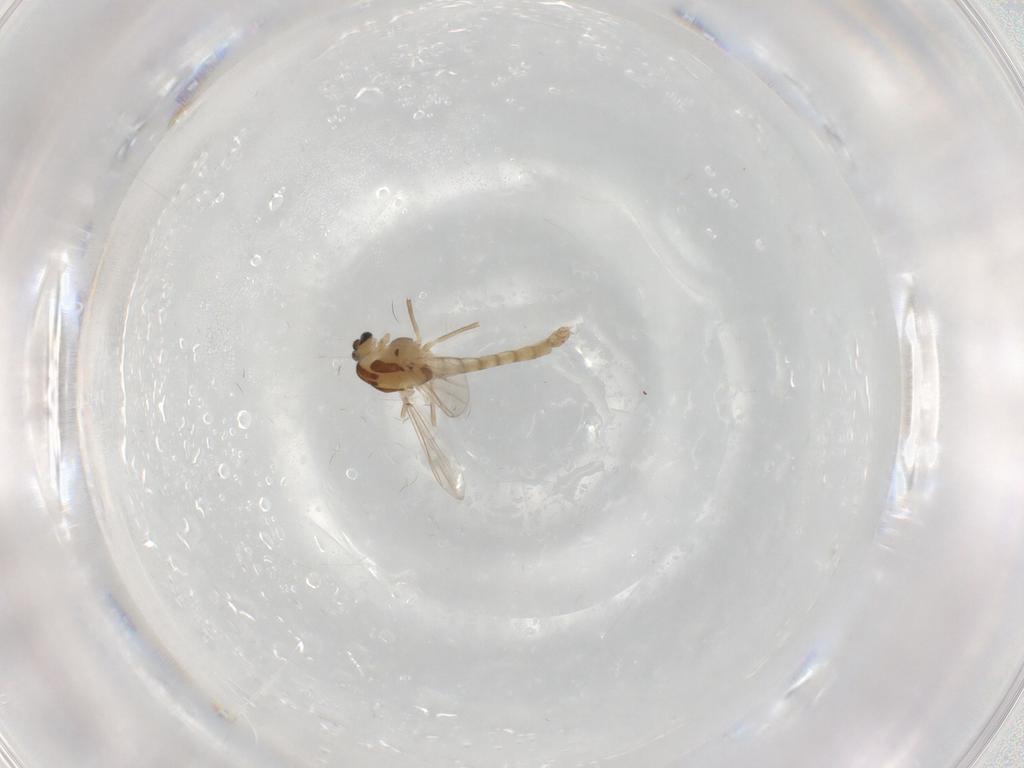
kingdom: Animalia
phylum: Arthropoda
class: Insecta
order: Diptera
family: Chironomidae
